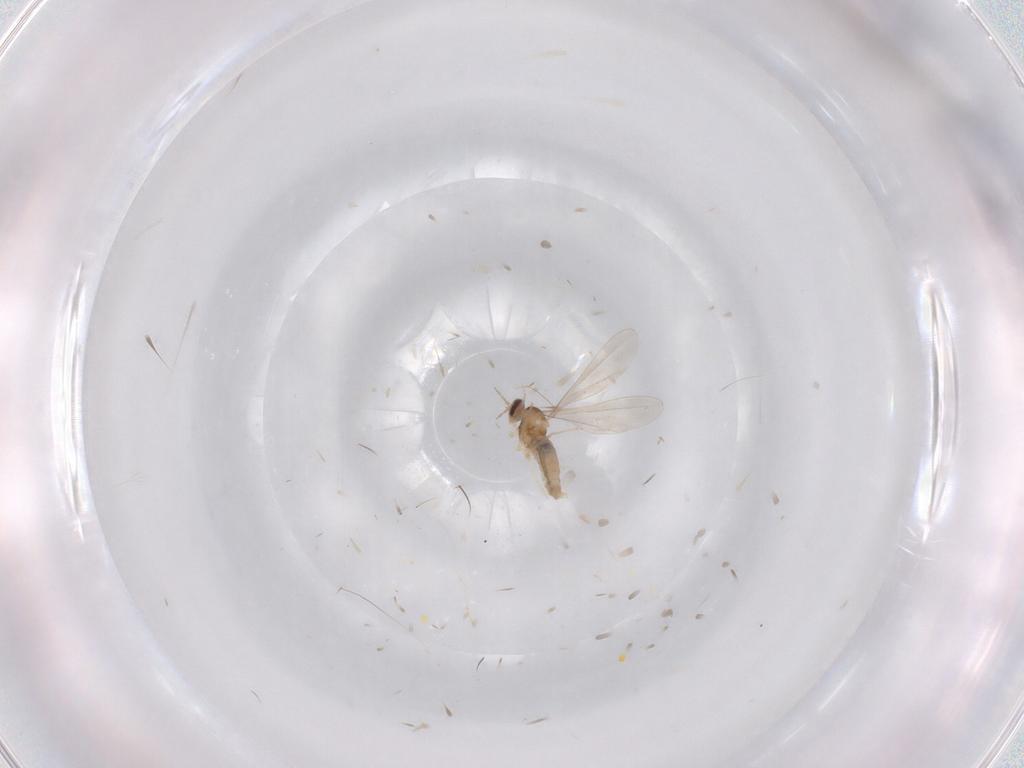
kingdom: Animalia
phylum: Arthropoda
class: Insecta
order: Diptera
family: Cecidomyiidae
